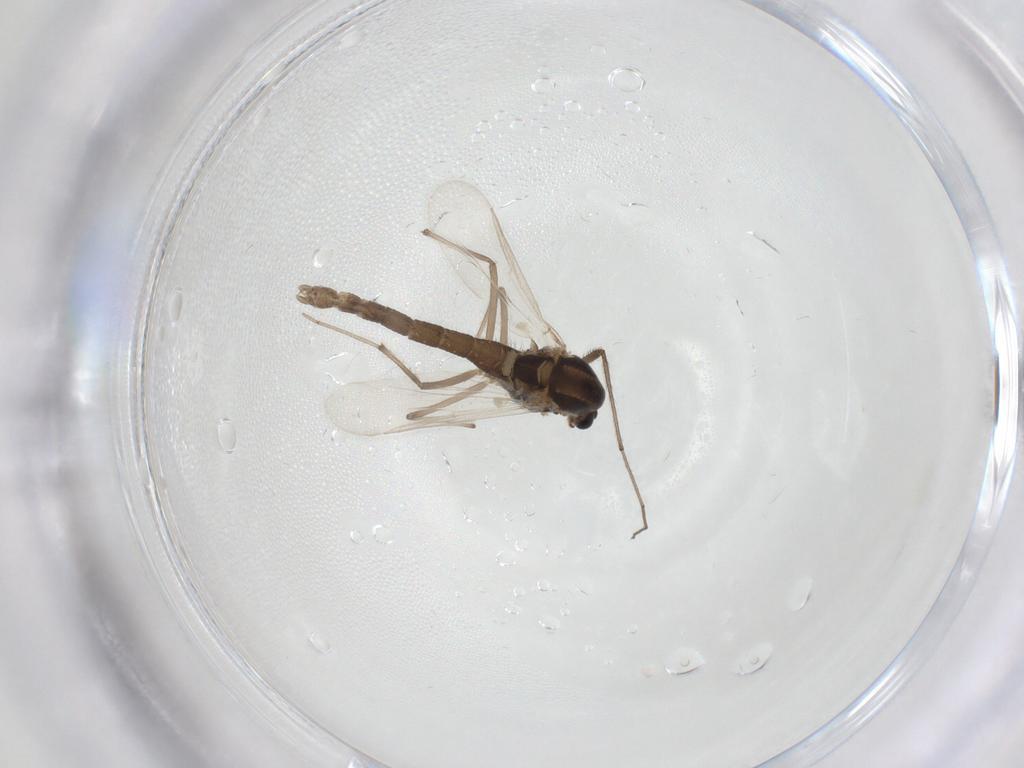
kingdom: Animalia
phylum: Arthropoda
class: Insecta
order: Diptera
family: Chironomidae
